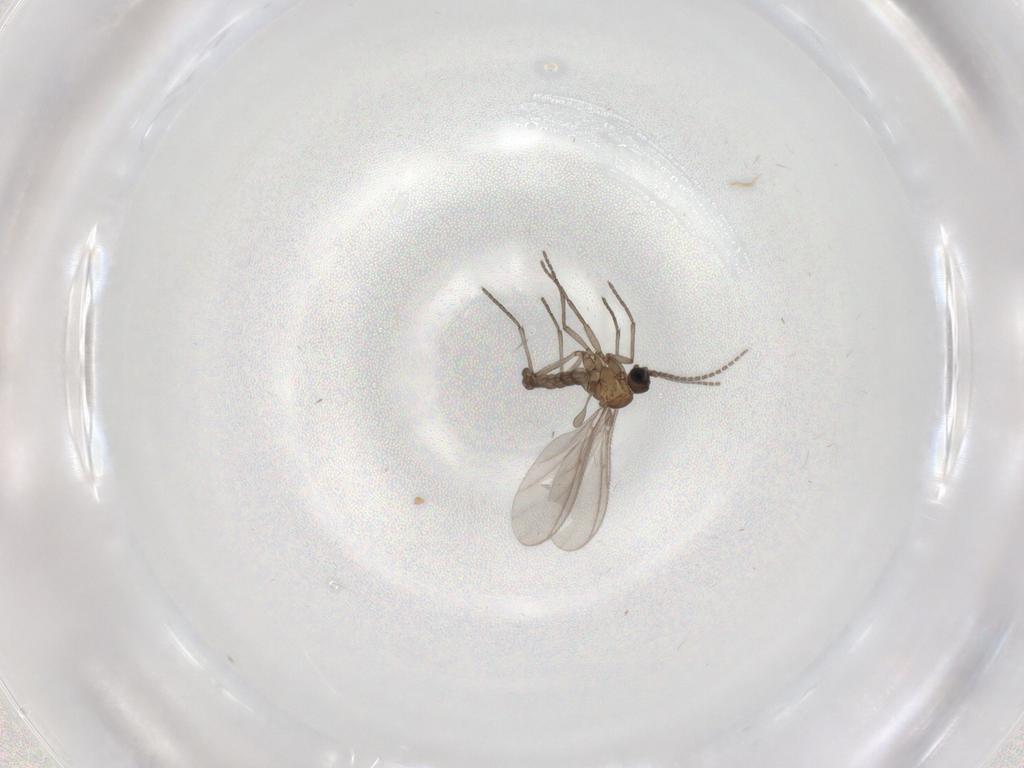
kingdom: Animalia
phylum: Arthropoda
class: Insecta
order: Diptera
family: Sciaridae
